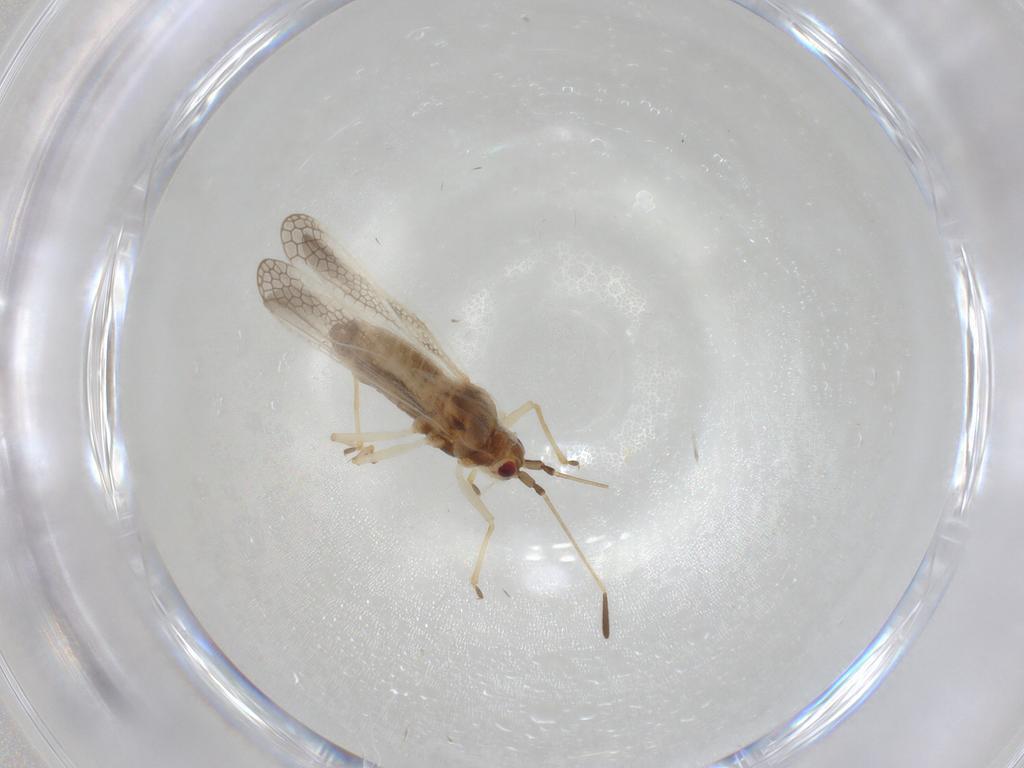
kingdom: Animalia
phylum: Arthropoda
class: Insecta
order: Hemiptera
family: Tingidae
